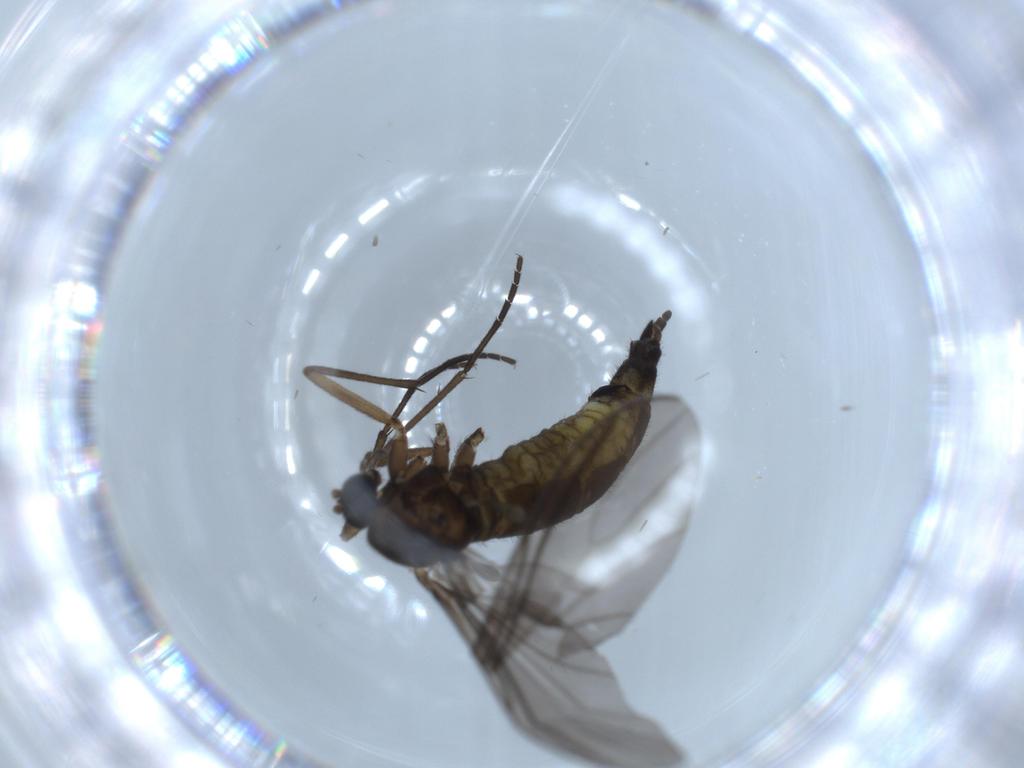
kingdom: Animalia
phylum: Arthropoda
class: Insecta
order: Diptera
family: Sciaridae
